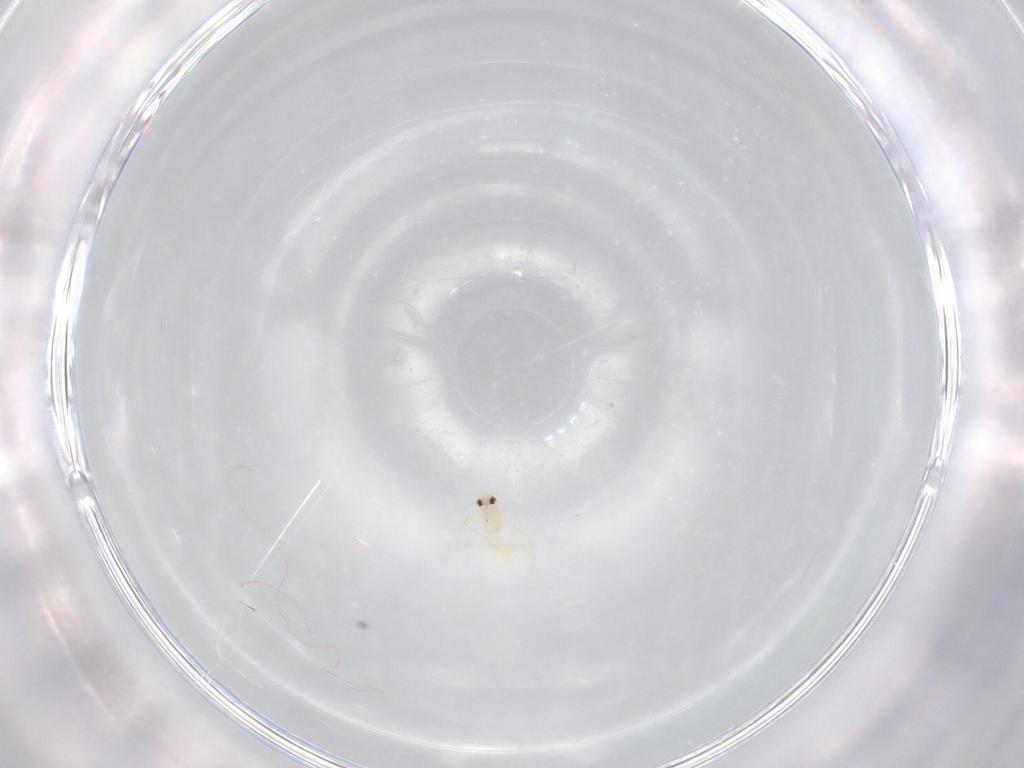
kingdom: Animalia
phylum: Arthropoda
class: Insecta
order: Hemiptera
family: Aleyrodidae
